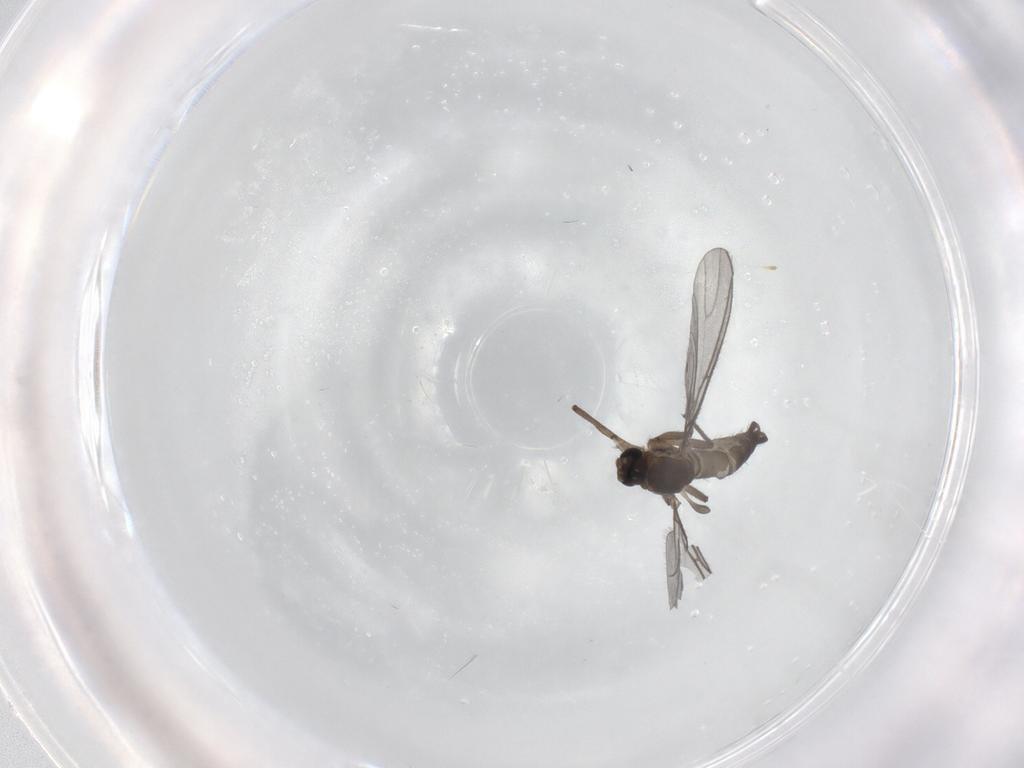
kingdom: Animalia
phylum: Arthropoda
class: Insecta
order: Diptera
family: Sciaridae
